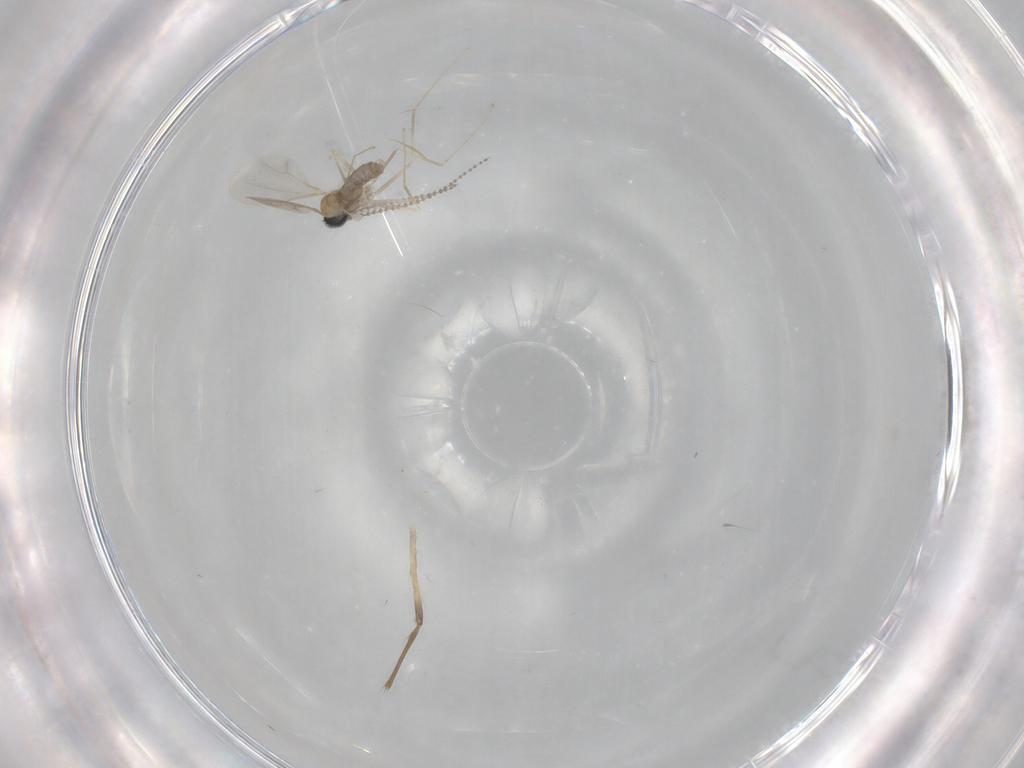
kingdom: Animalia
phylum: Arthropoda
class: Insecta
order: Diptera
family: Cecidomyiidae
